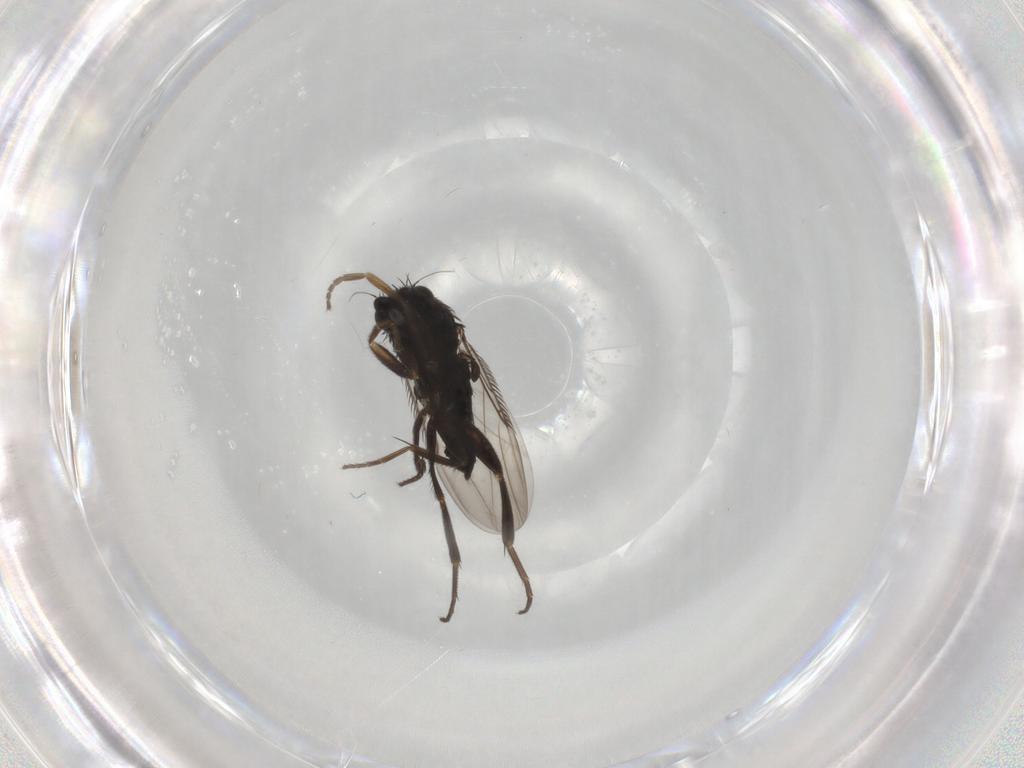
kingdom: Animalia
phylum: Arthropoda
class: Insecta
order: Diptera
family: Phoridae
